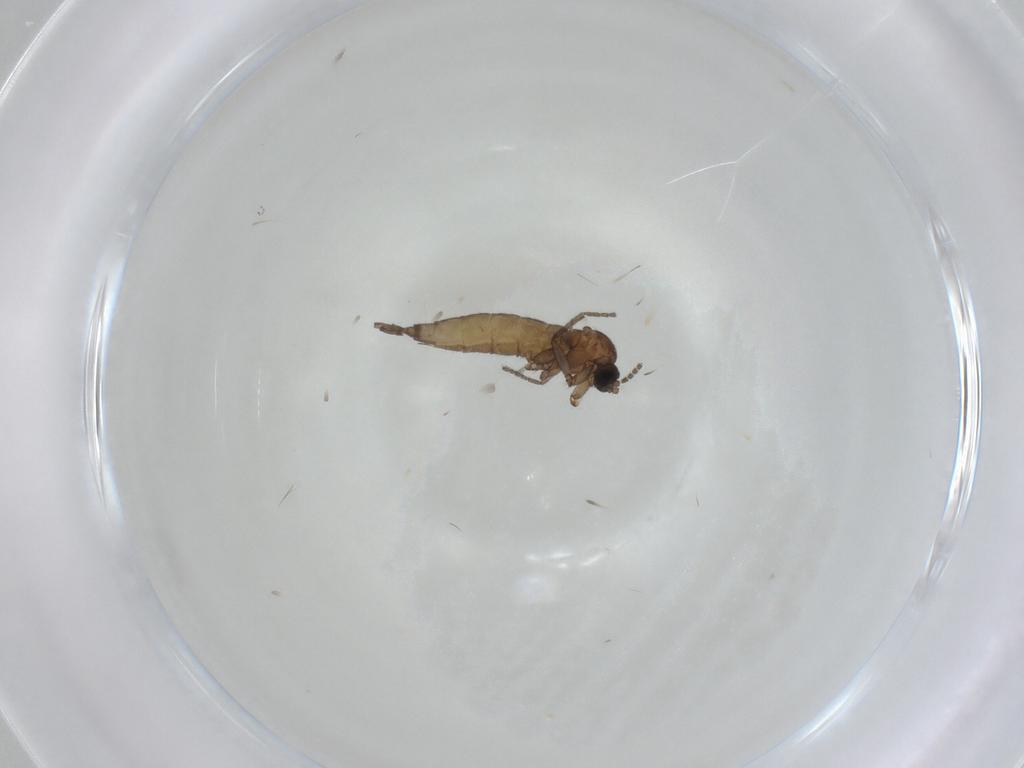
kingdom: Animalia
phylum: Arthropoda
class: Insecta
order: Diptera
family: Sciaridae
